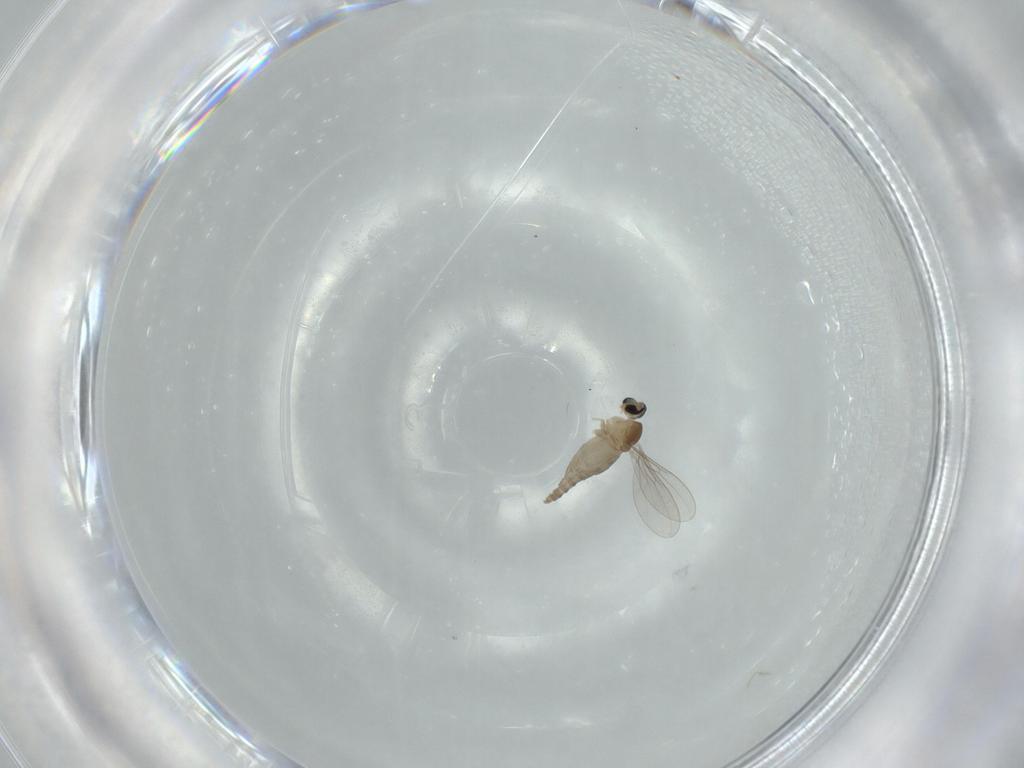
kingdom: Animalia
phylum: Arthropoda
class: Insecta
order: Diptera
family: Cecidomyiidae
